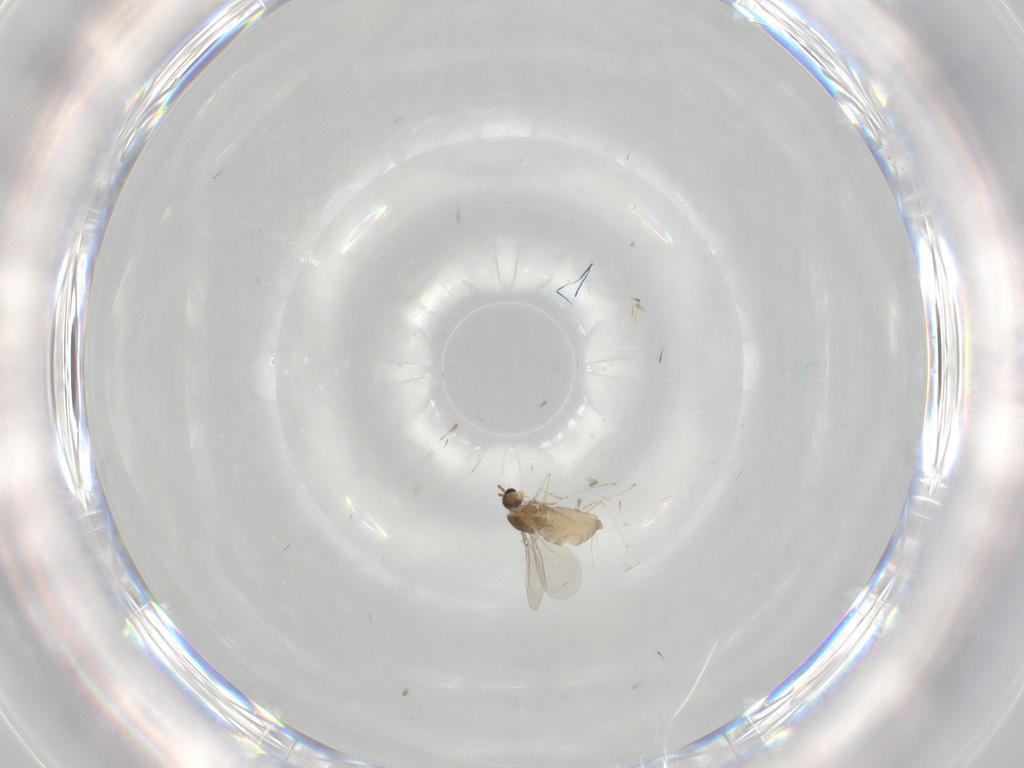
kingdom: Animalia
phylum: Arthropoda
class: Insecta
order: Diptera
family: Cecidomyiidae
